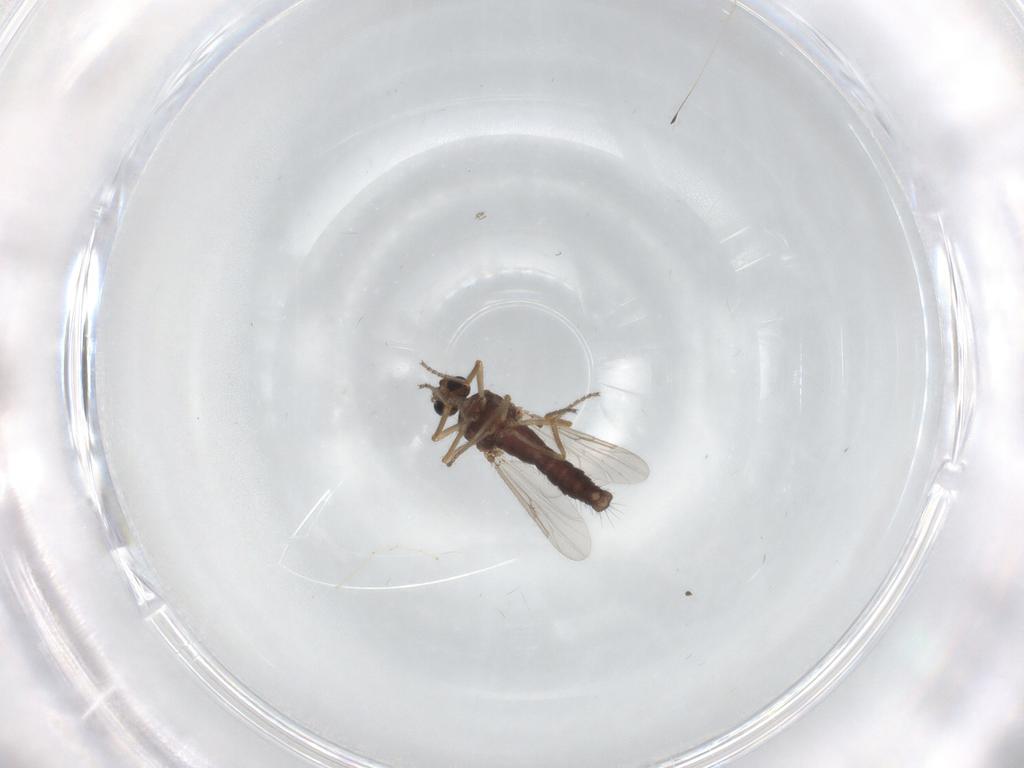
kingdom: Animalia
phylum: Arthropoda
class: Insecta
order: Diptera
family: Ceratopogonidae
